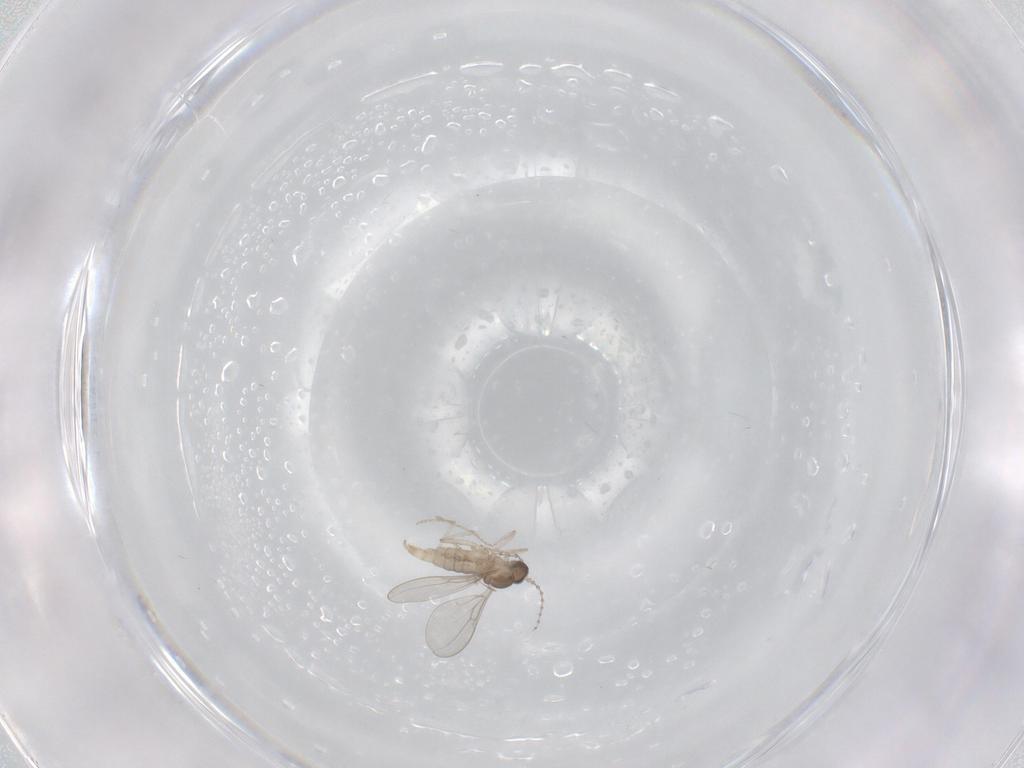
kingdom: Animalia
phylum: Arthropoda
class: Insecta
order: Diptera
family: Cecidomyiidae
